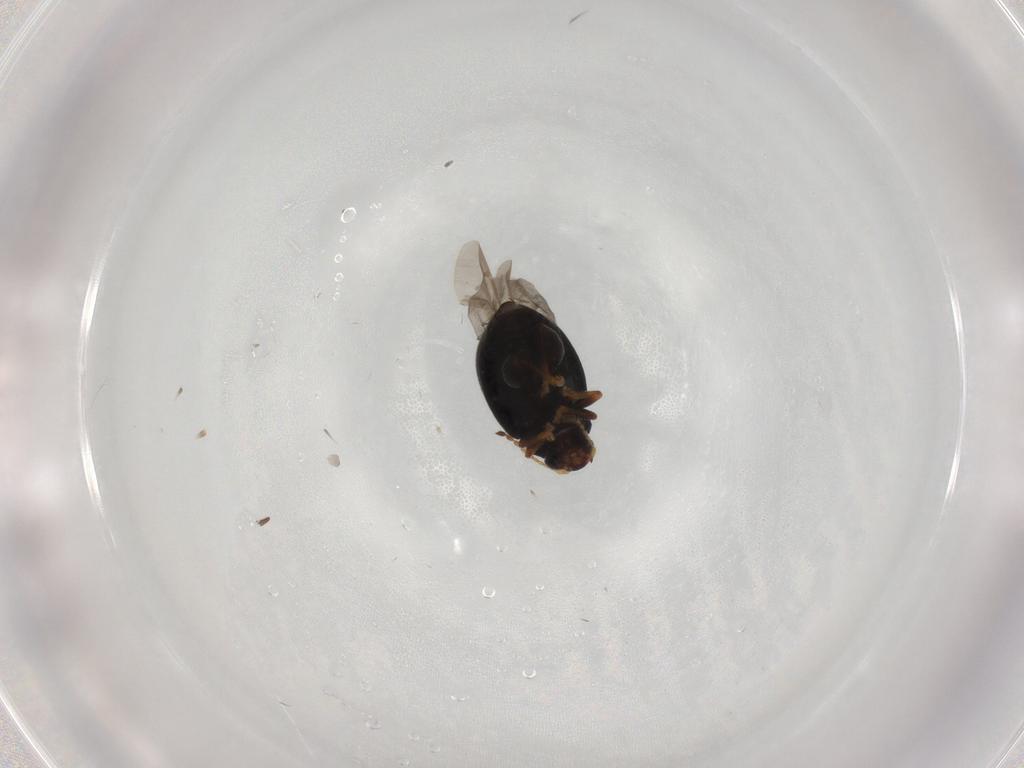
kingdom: Animalia
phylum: Arthropoda
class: Insecta
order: Coleoptera
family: Chrysomelidae
